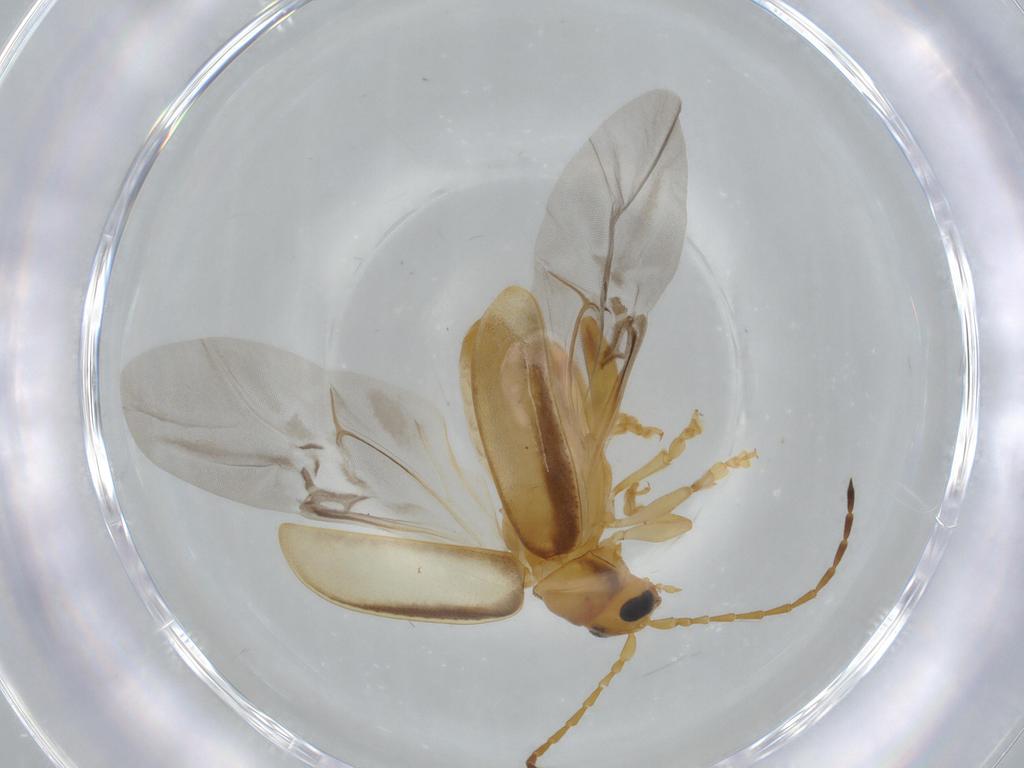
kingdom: Animalia
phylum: Arthropoda
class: Insecta
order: Coleoptera
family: Chrysomelidae
